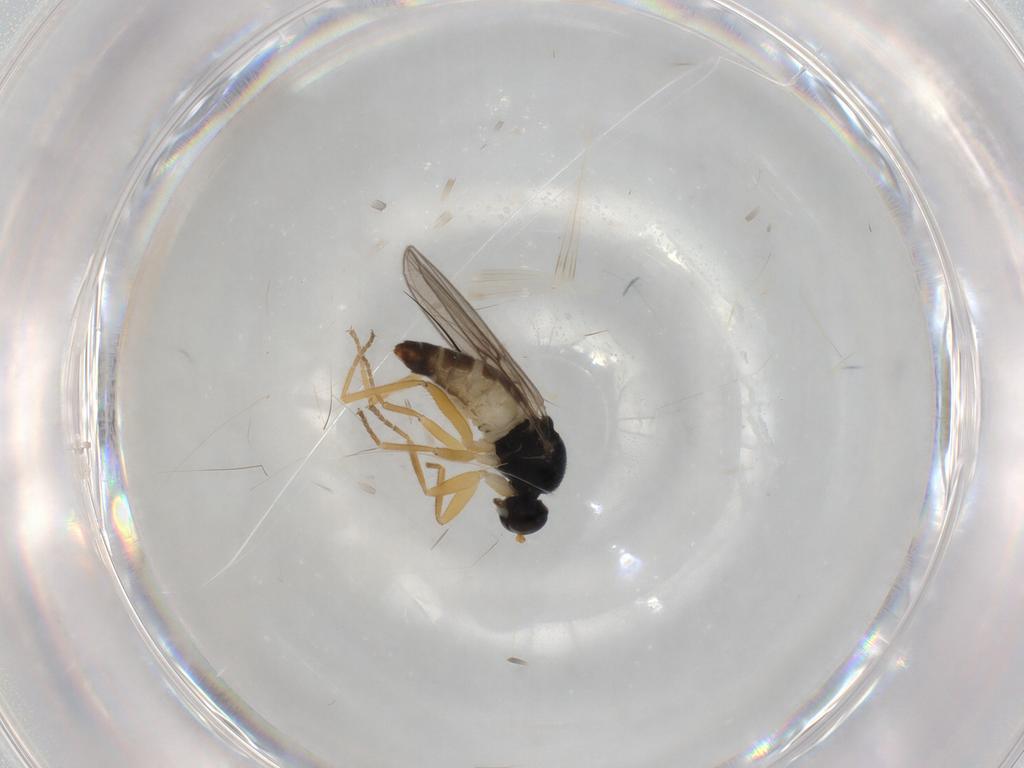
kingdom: Animalia
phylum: Arthropoda
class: Insecta
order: Diptera
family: Hybotidae
